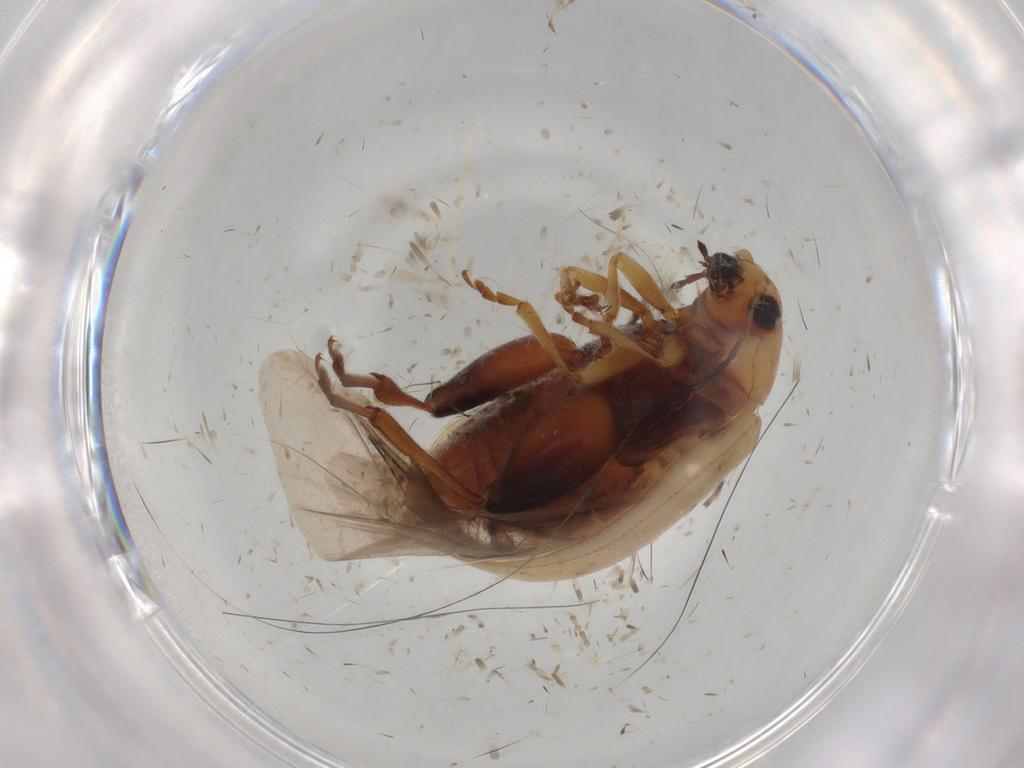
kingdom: Animalia
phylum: Arthropoda
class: Insecta
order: Coleoptera
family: Chrysomelidae
